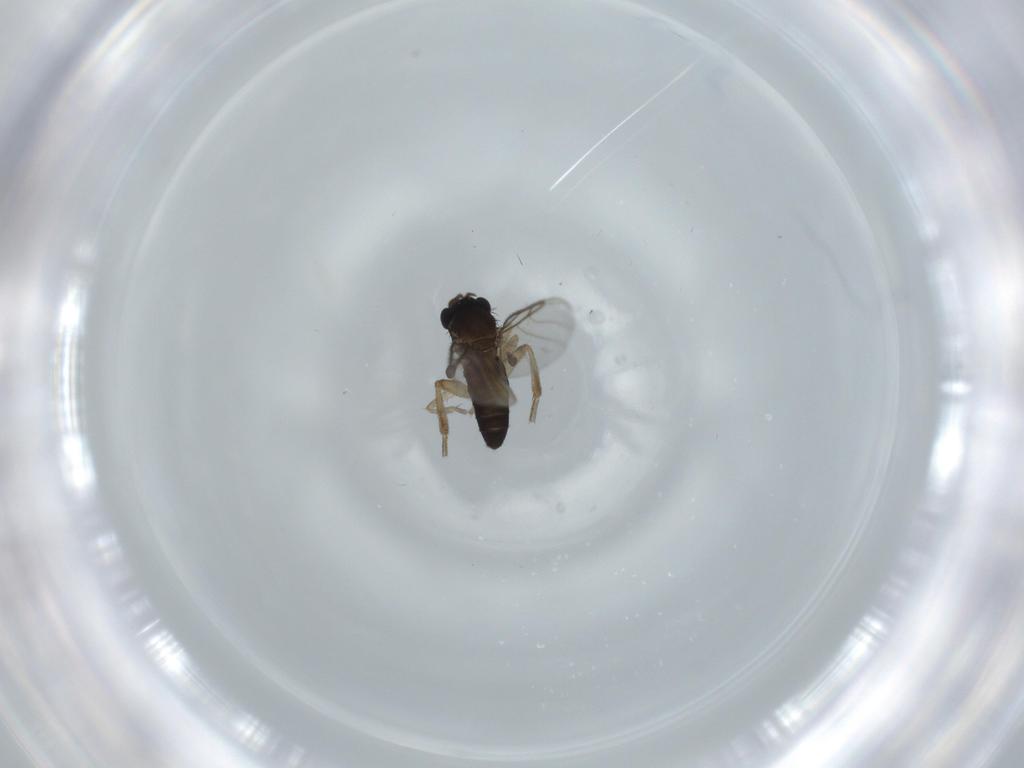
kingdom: Animalia
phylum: Arthropoda
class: Insecta
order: Diptera
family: Phoridae
